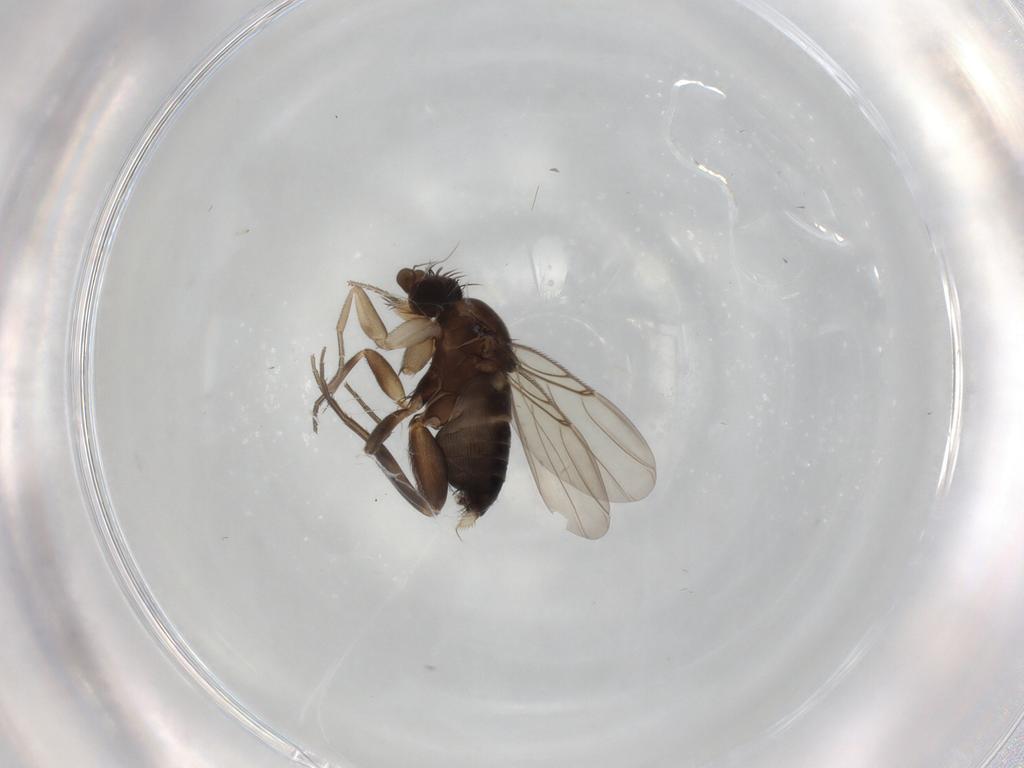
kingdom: Animalia
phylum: Arthropoda
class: Insecta
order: Diptera
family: Phoridae
